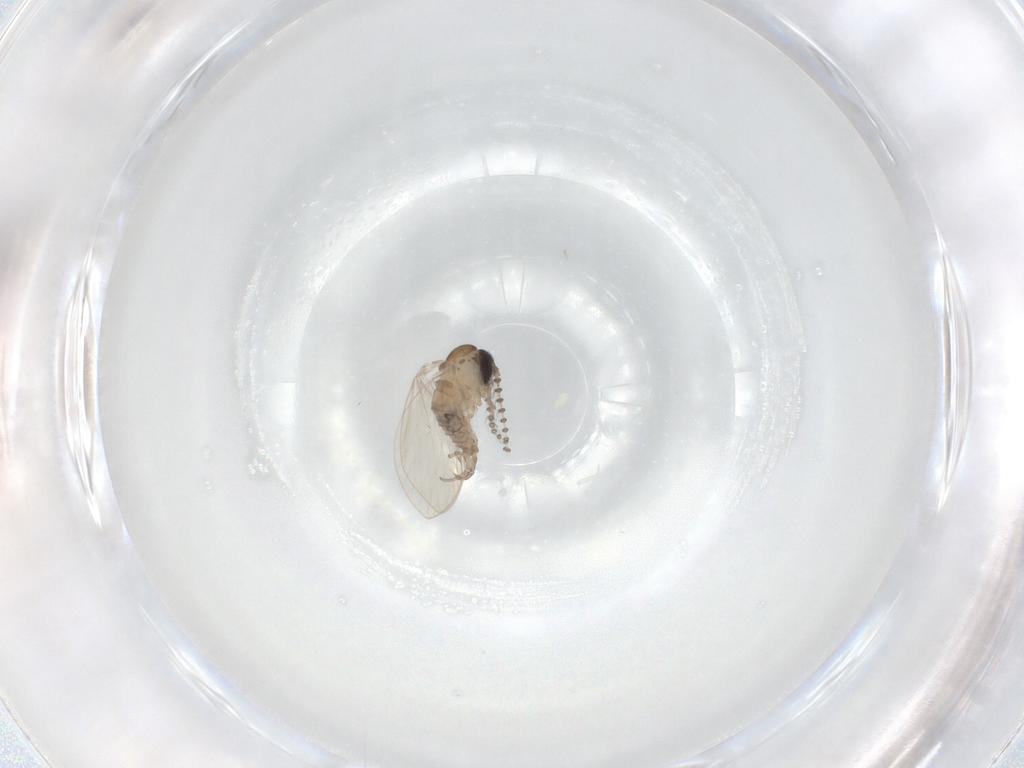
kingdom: Animalia
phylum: Arthropoda
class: Insecta
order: Diptera
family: Psychodidae
